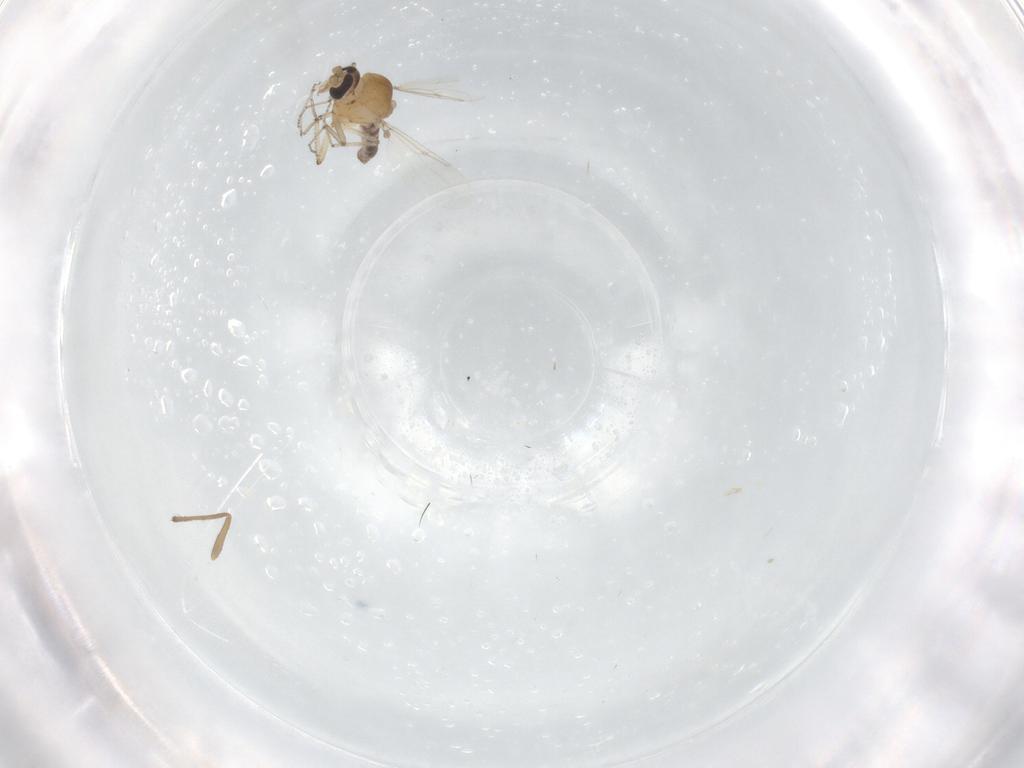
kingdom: Animalia
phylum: Arthropoda
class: Insecta
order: Diptera
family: Ceratopogonidae
